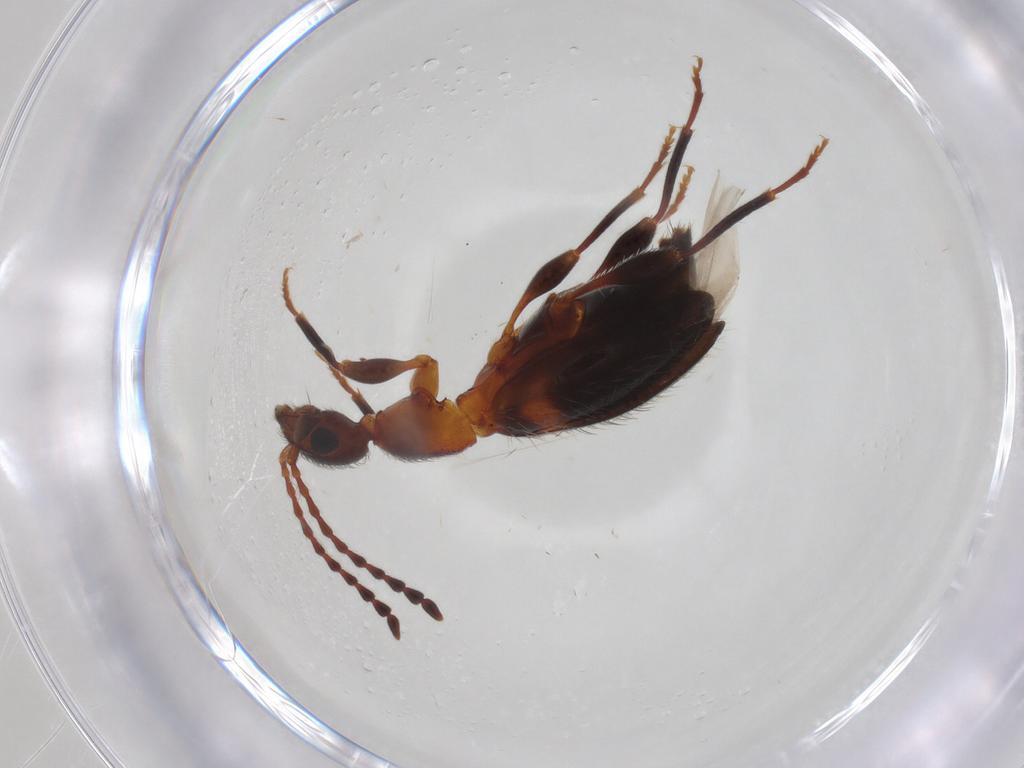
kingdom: Animalia
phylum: Arthropoda
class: Insecta
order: Coleoptera
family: Anthicidae
